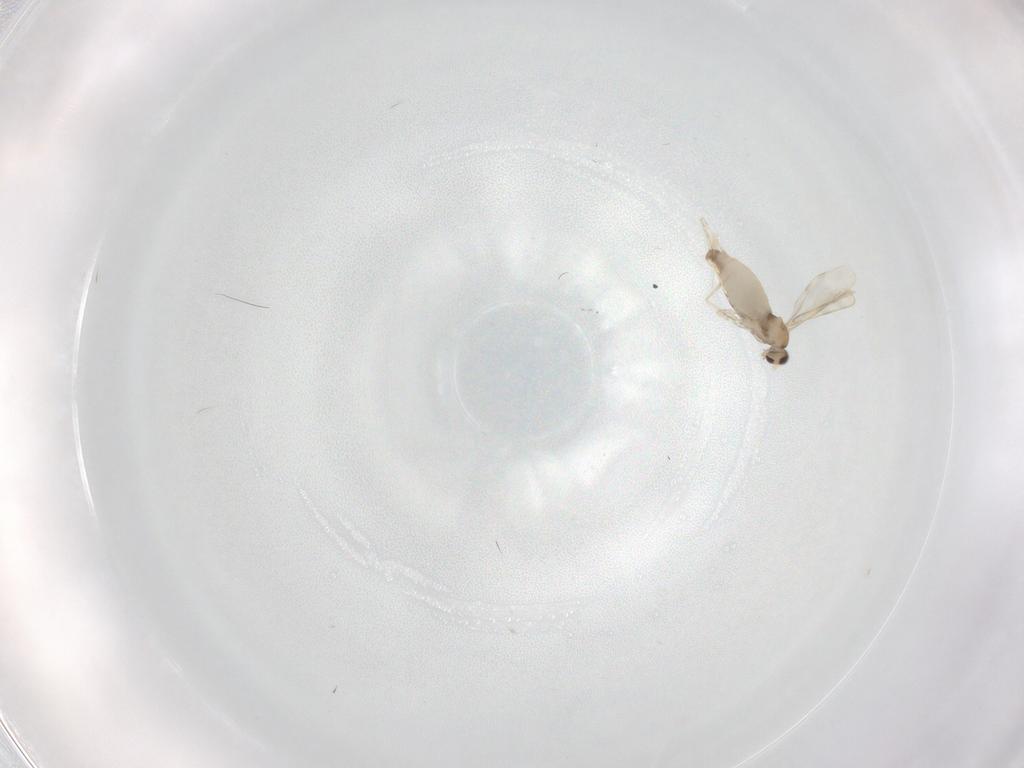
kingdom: Animalia
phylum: Arthropoda
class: Insecta
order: Diptera
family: Cecidomyiidae
